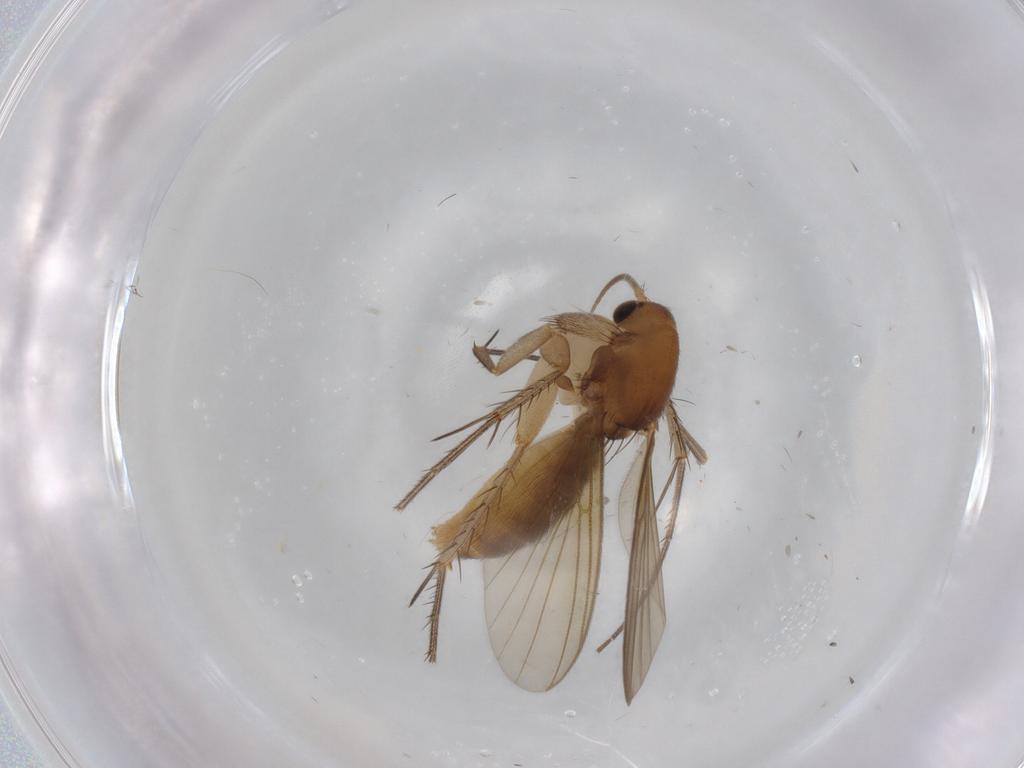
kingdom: Animalia
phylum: Arthropoda
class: Insecta
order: Diptera
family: Mycetophilidae
